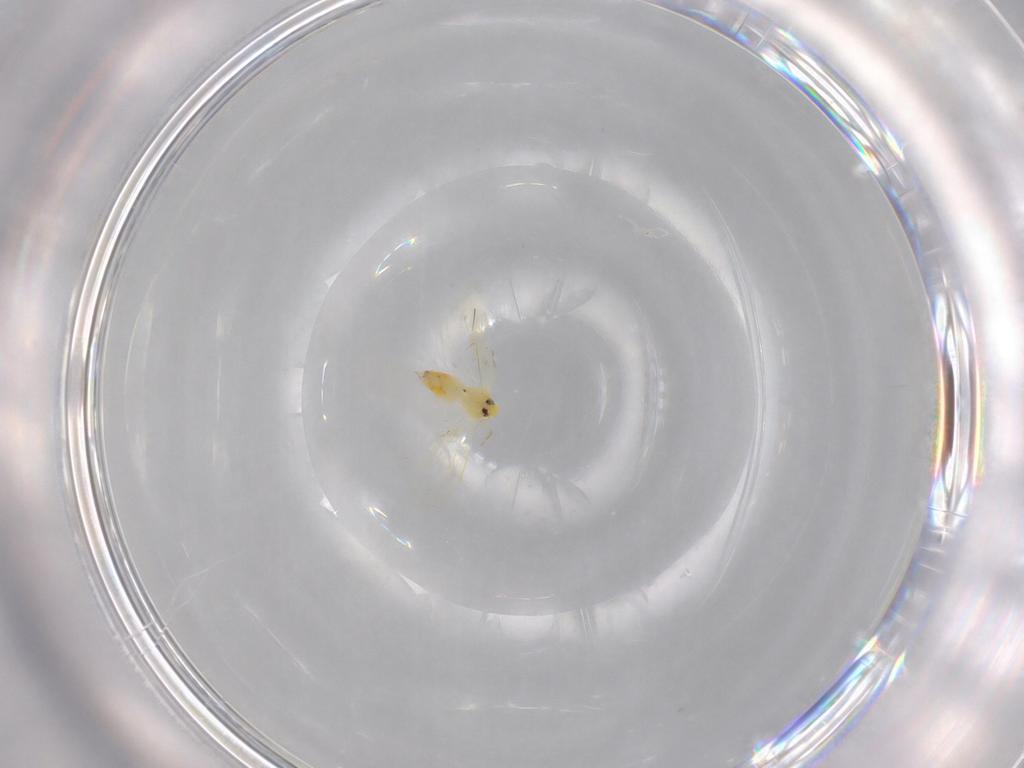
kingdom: Animalia
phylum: Arthropoda
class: Insecta
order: Hemiptera
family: Aleyrodidae
